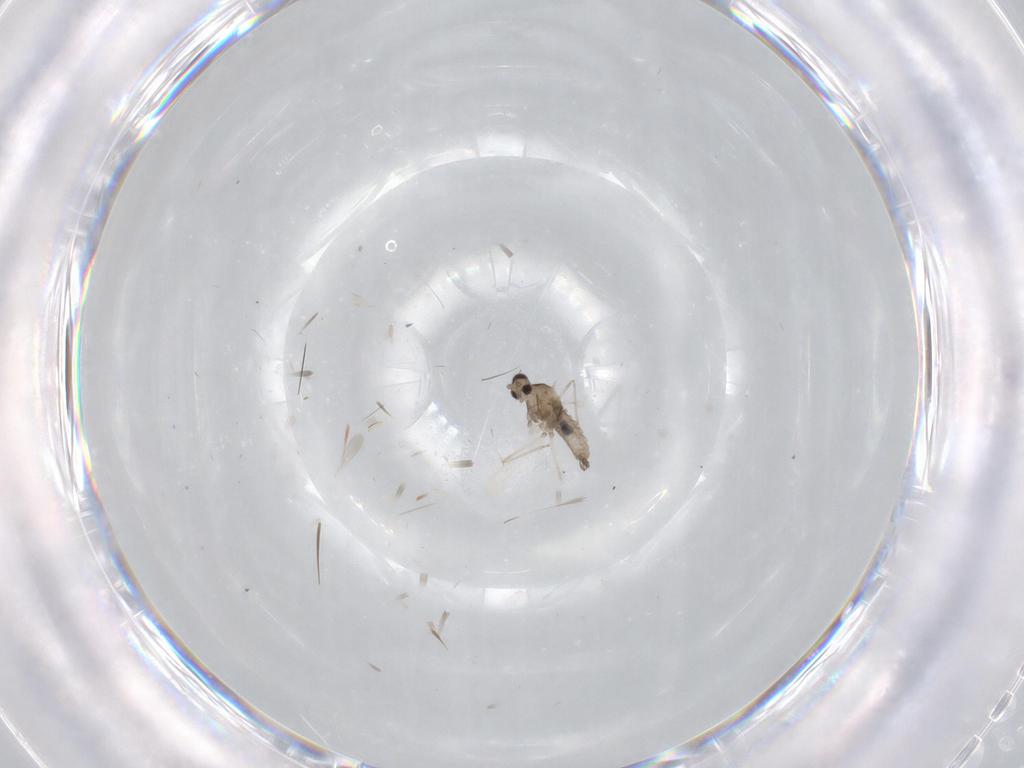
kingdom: Animalia
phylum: Arthropoda
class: Insecta
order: Diptera
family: Cecidomyiidae
